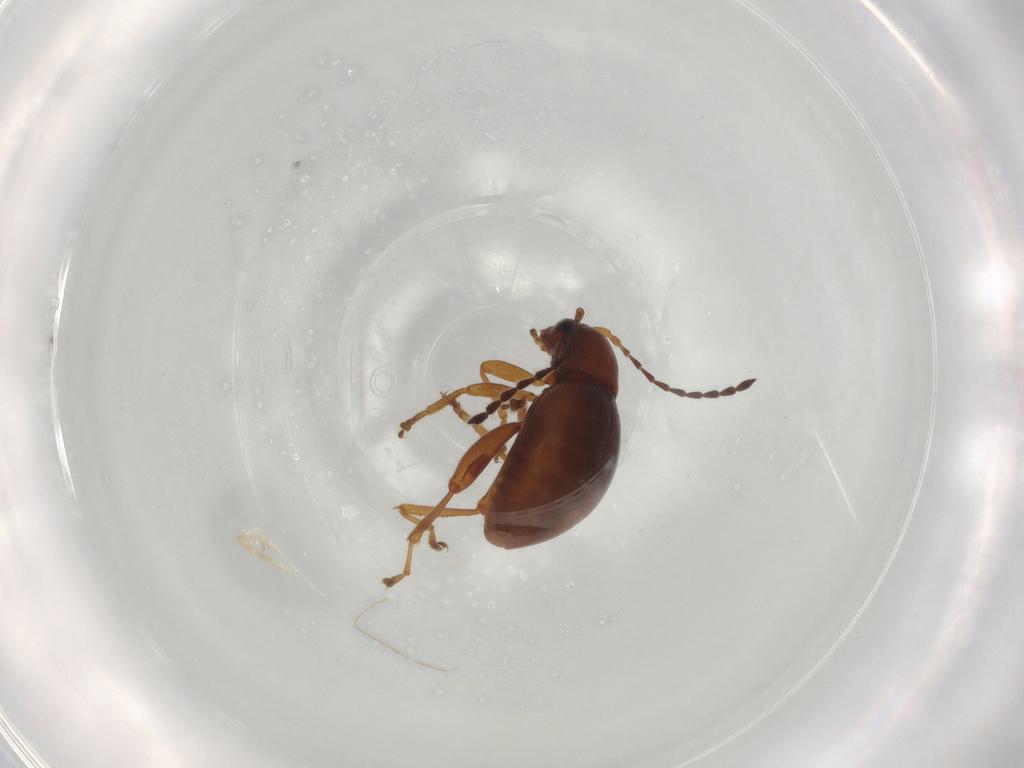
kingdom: Animalia
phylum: Arthropoda
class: Insecta
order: Coleoptera
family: Chrysomelidae
